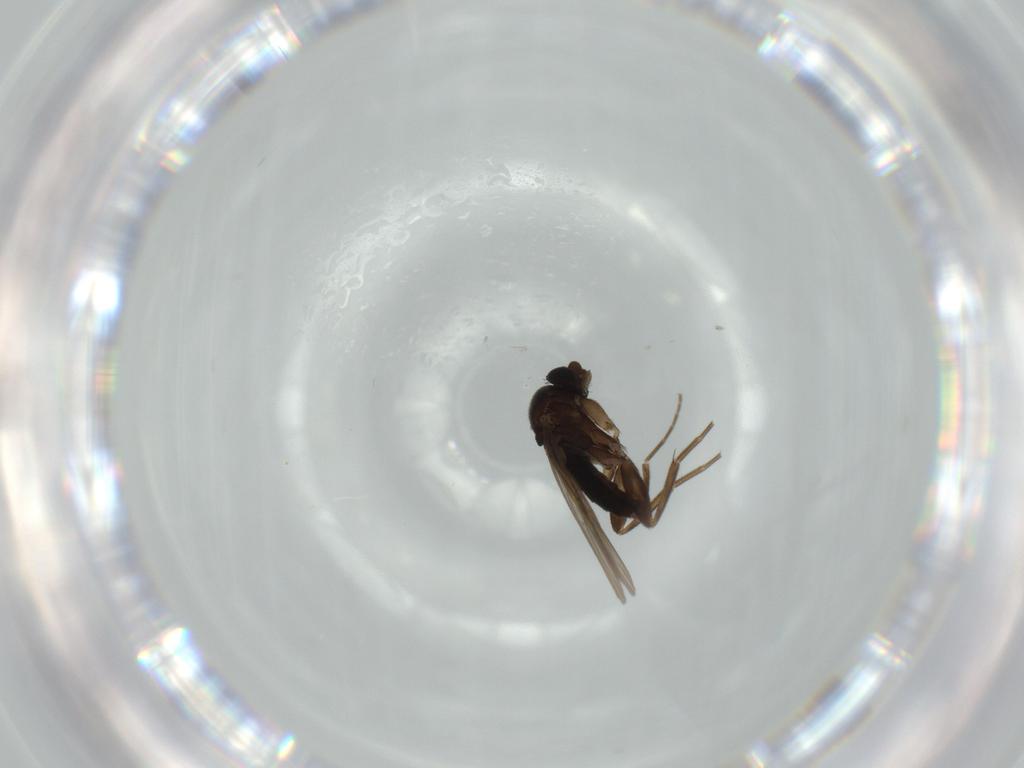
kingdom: Animalia
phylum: Arthropoda
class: Insecta
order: Diptera
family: Phoridae
